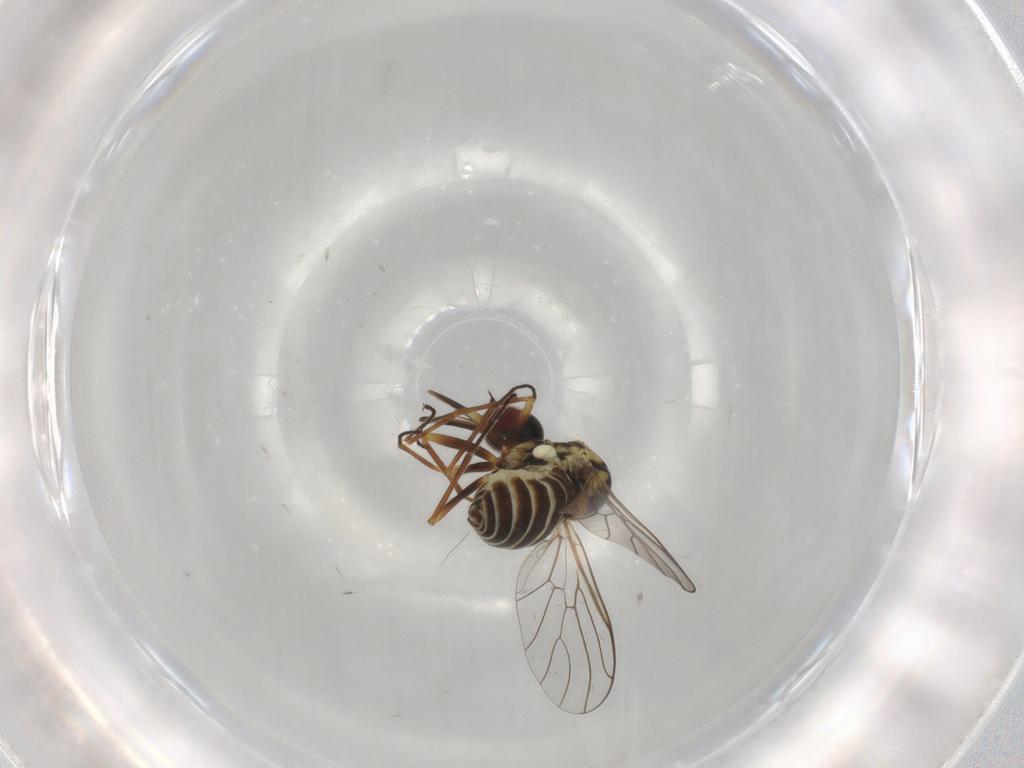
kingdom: Animalia
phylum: Arthropoda
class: Insecta
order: Diptera
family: Bombyliidae
